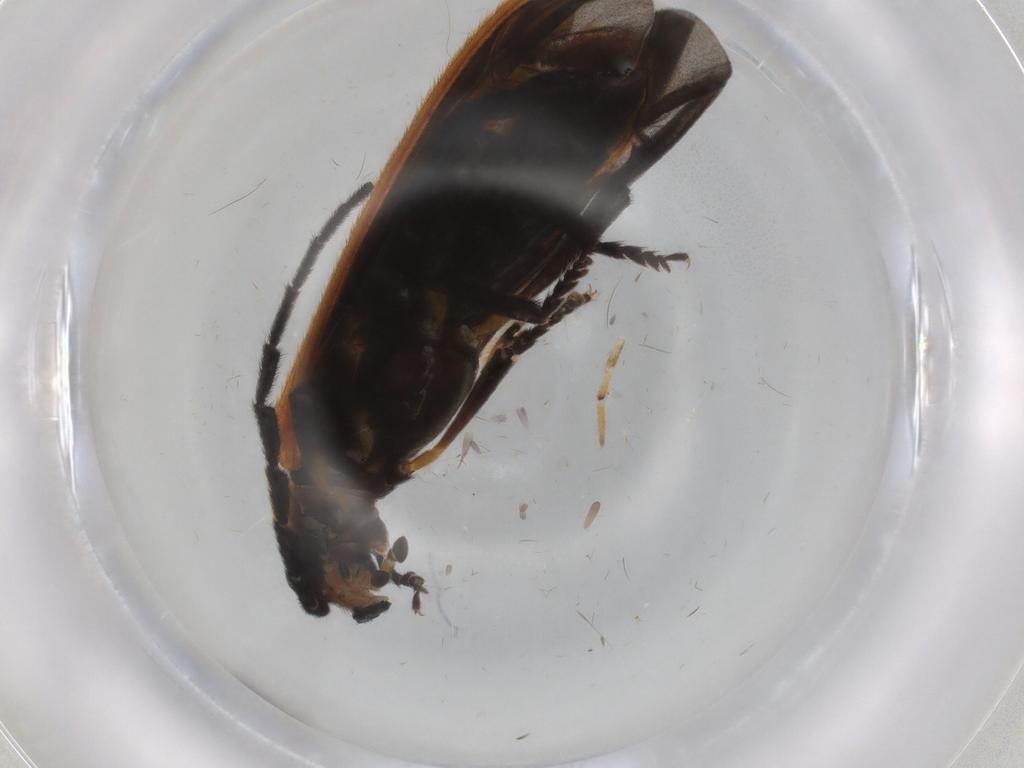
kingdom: Animalia
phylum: Arthropoda
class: Insecta
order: Coleoptera
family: Lycidae
